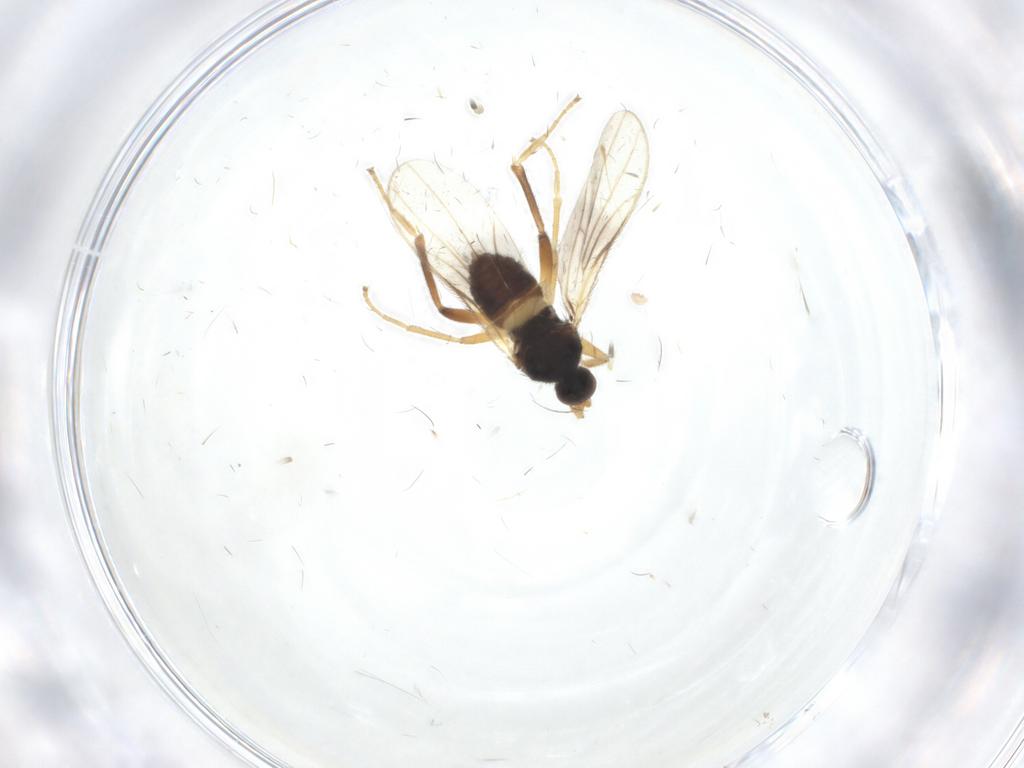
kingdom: Animalia
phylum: Arthropoda
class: Insecta
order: Diptera
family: Hybotidae
